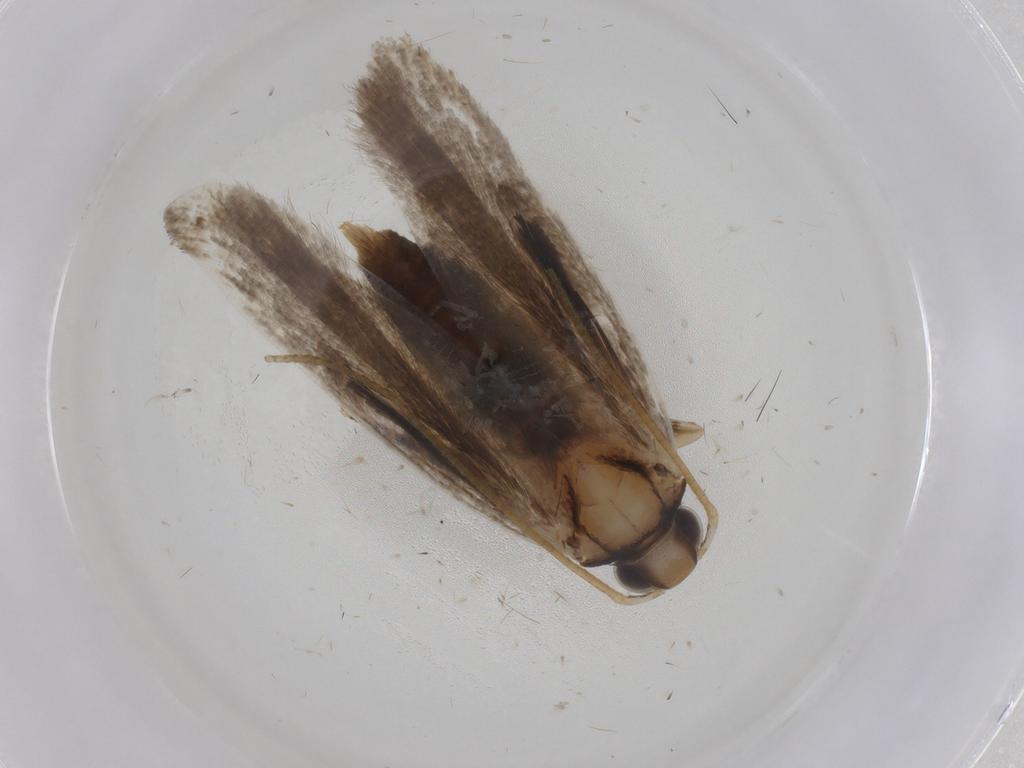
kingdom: Animalia
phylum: Arthropoda
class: Insecta
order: Lepidoptera
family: Gelechiidae
